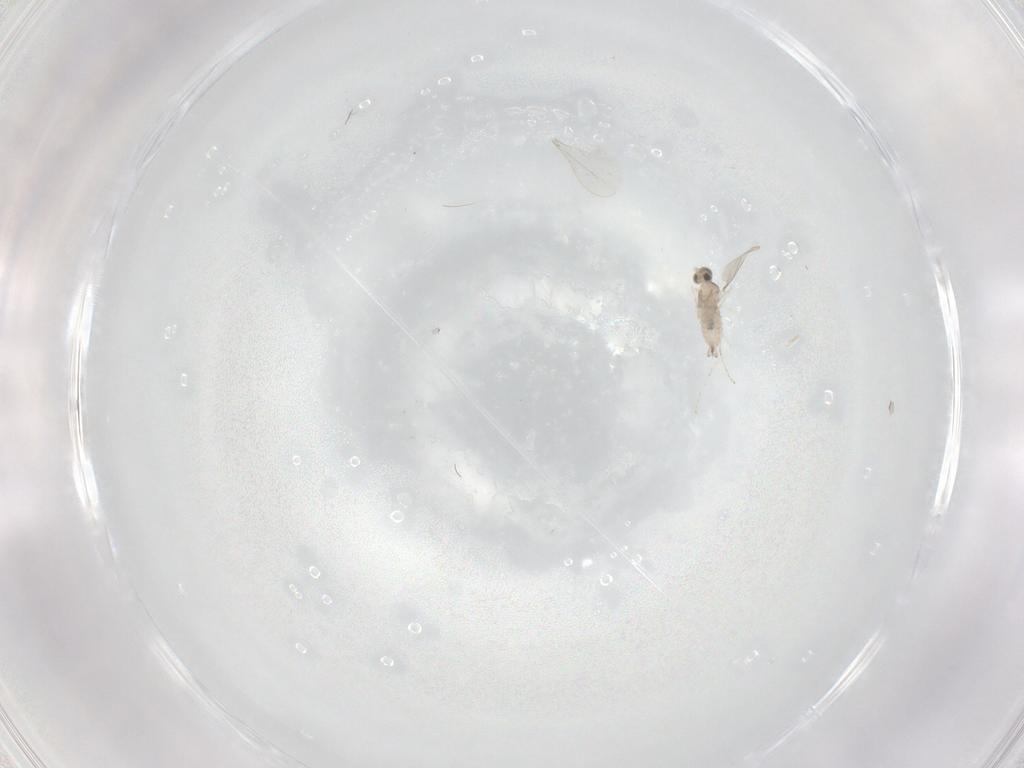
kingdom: Animalia
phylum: Arthropoda
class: Insecta
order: Diptera
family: Cecidomyiidae
